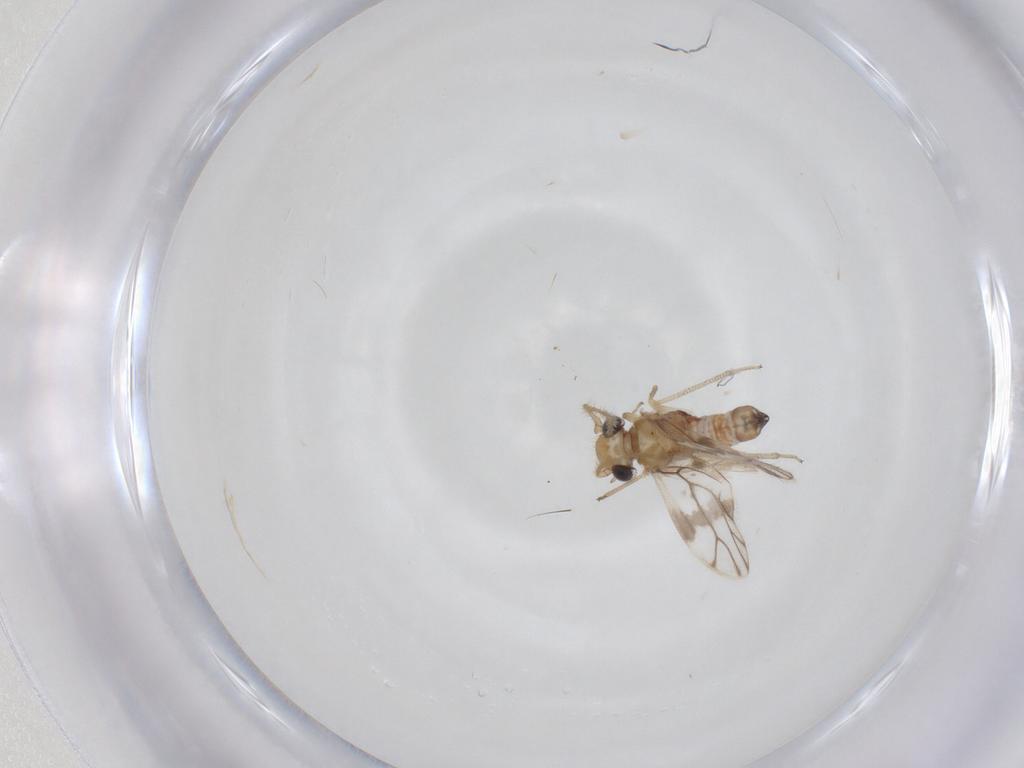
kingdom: Animalia
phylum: Arthropoda
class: Insecta
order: Psocodea
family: Pseudocaeciliidae
